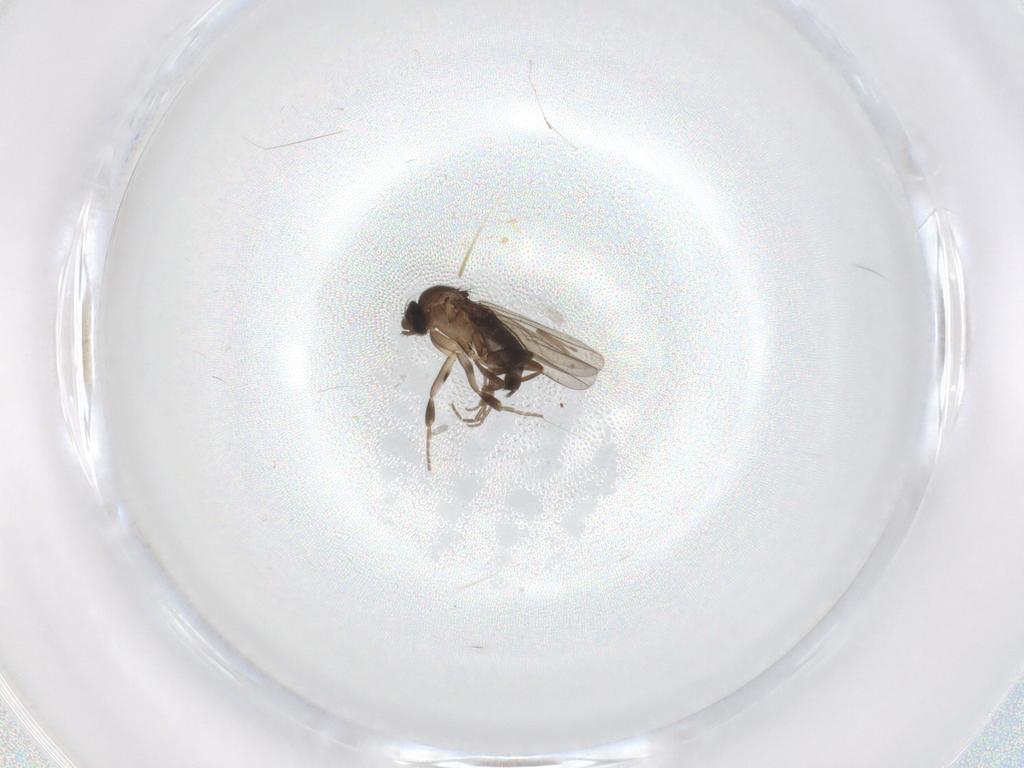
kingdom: Animalia
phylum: Arthropoda
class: Insecta
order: Diptera
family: Phoridae
